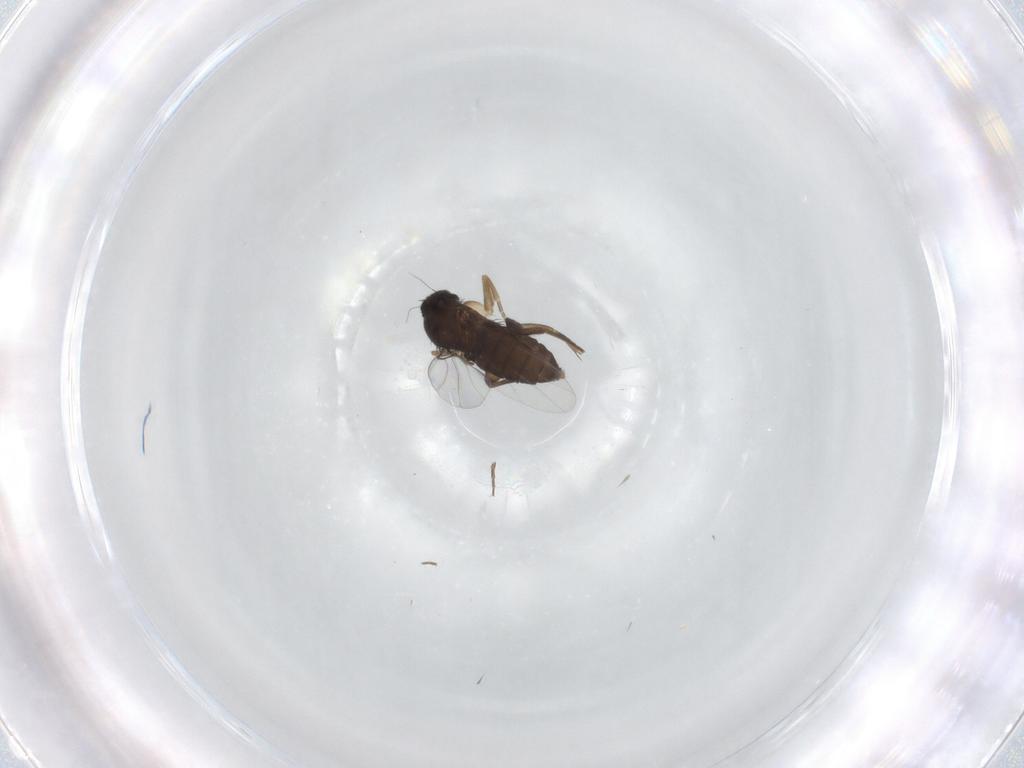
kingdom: Animalia
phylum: Arthropoda
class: Insecta
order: Diptera
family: Phoridae
